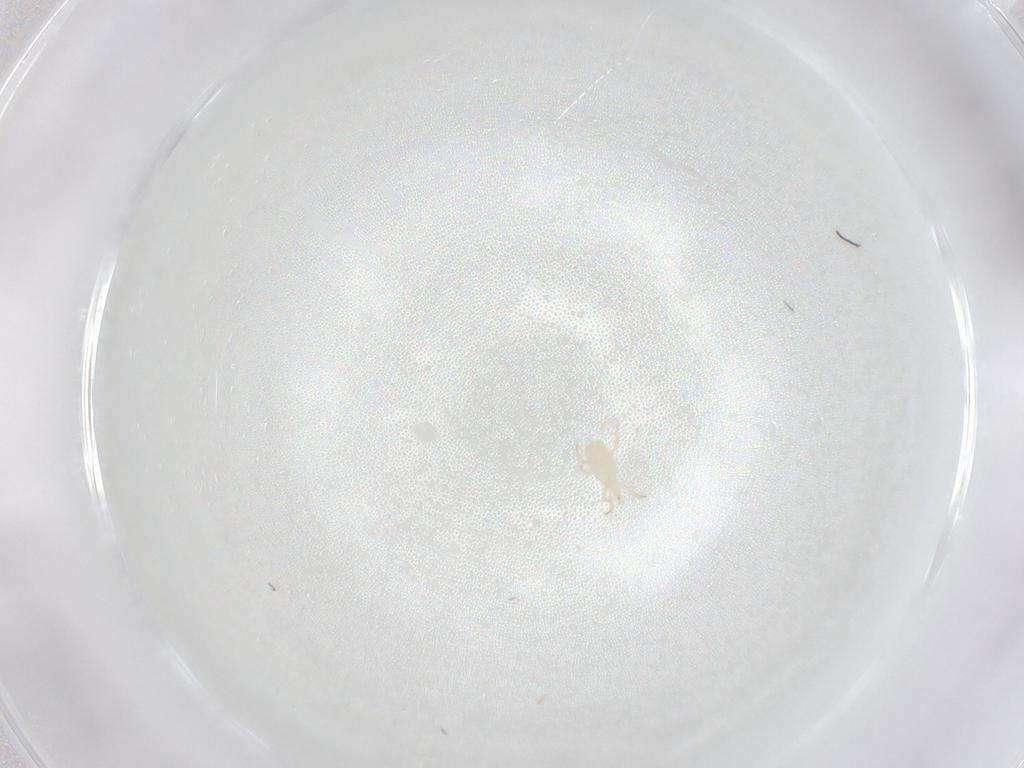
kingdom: Animalia
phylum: Arthropoda
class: Arachnida
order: Mesostigmata
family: Phytoseiidae
